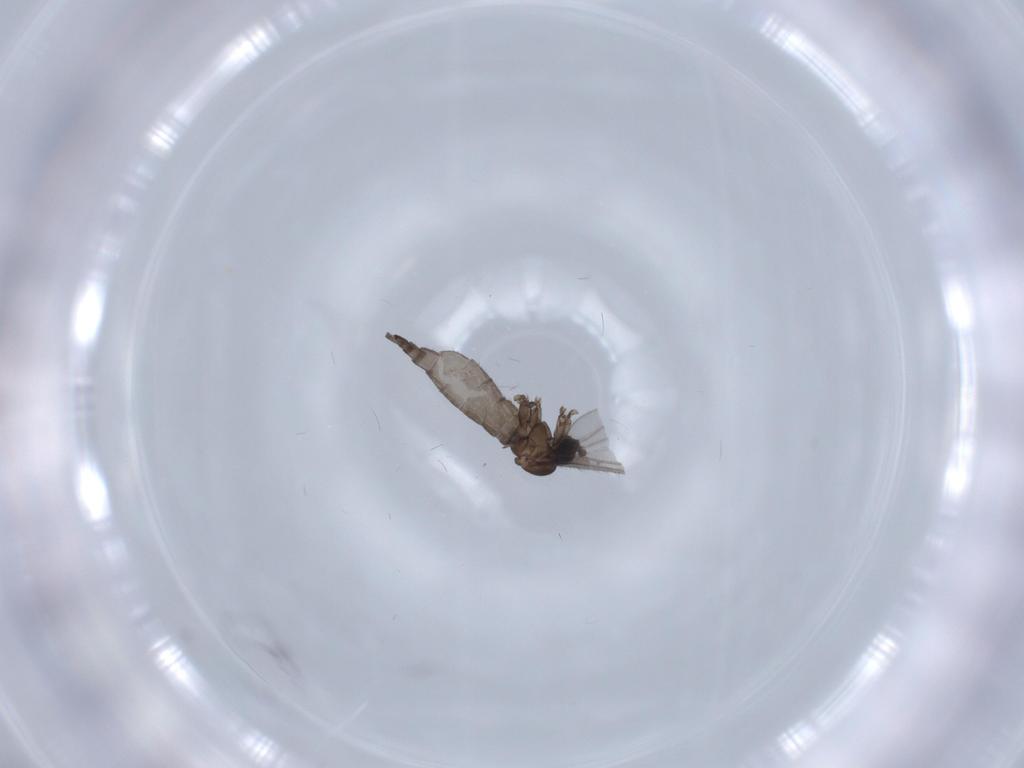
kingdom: Animalia
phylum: Arthropoda
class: Insecta
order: Diptera
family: Sciaridae
